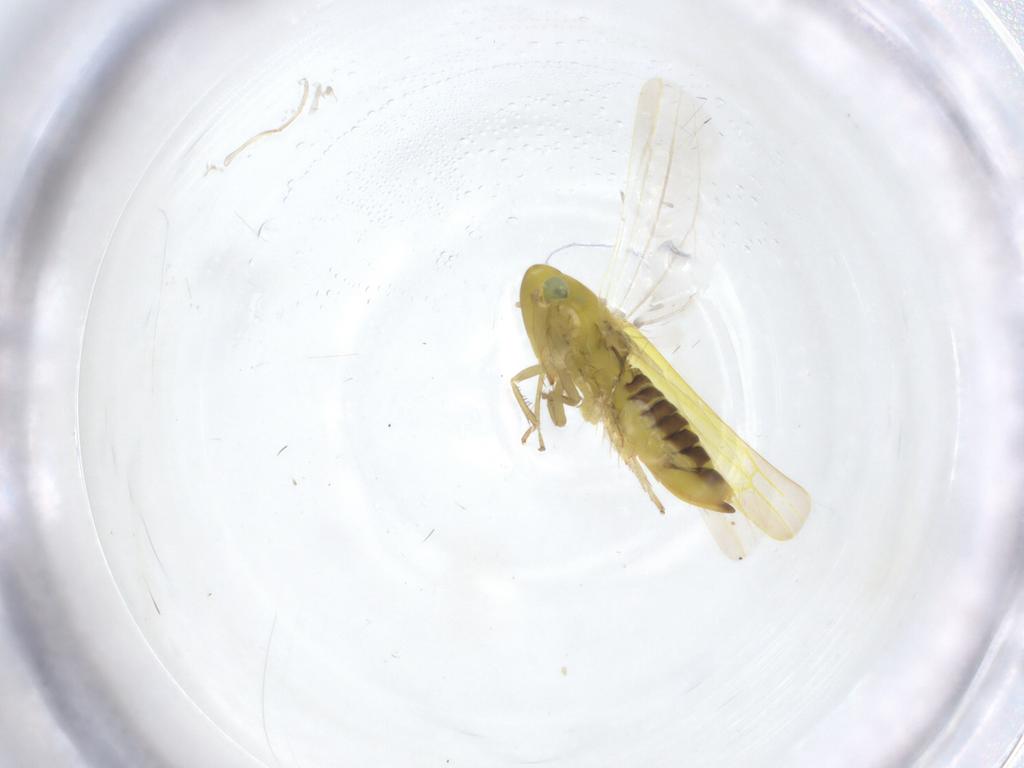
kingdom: Animalia
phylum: Arthropoda
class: Insecta
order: Hemiptera
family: Cicadellidae
